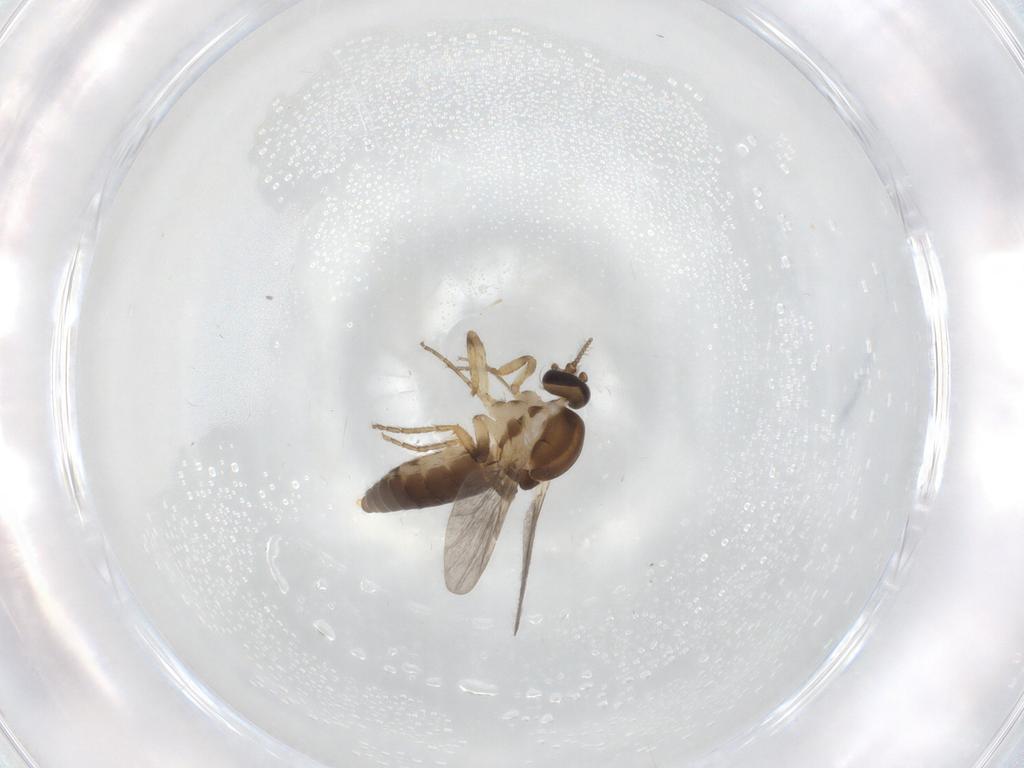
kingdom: Animalia
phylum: Arthropoda
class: Insecta
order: Diptera
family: Ceratopogonidae
